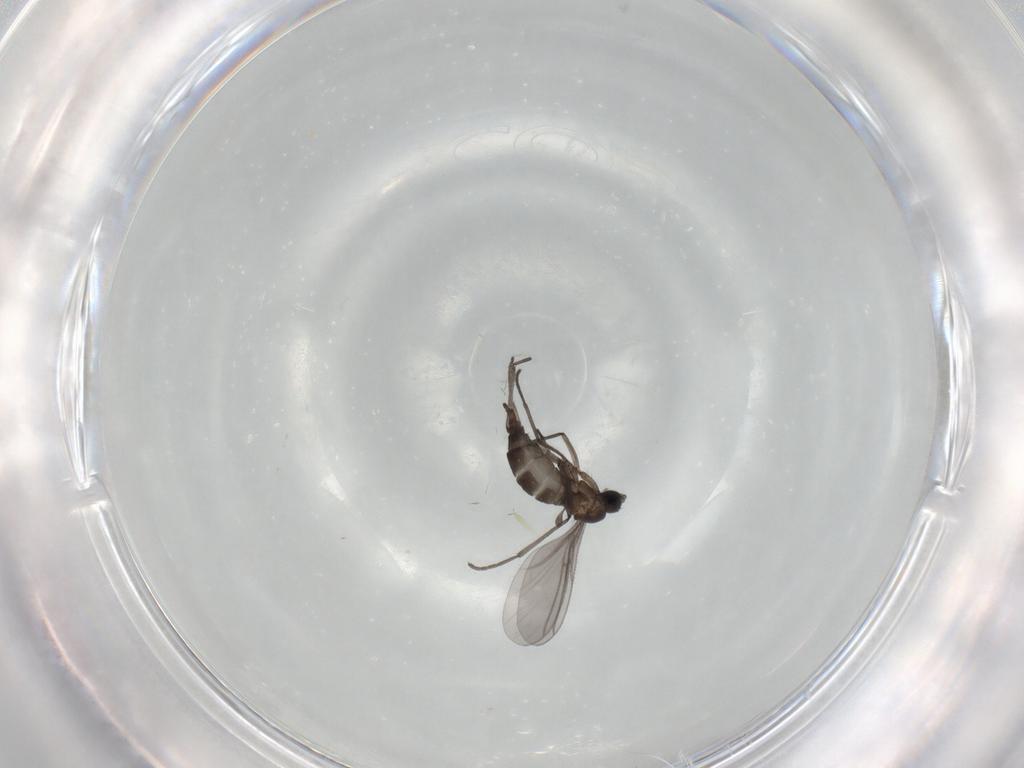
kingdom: Animalia
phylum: Arthropoda
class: Insecta
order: Diptera
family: Sciaridae
